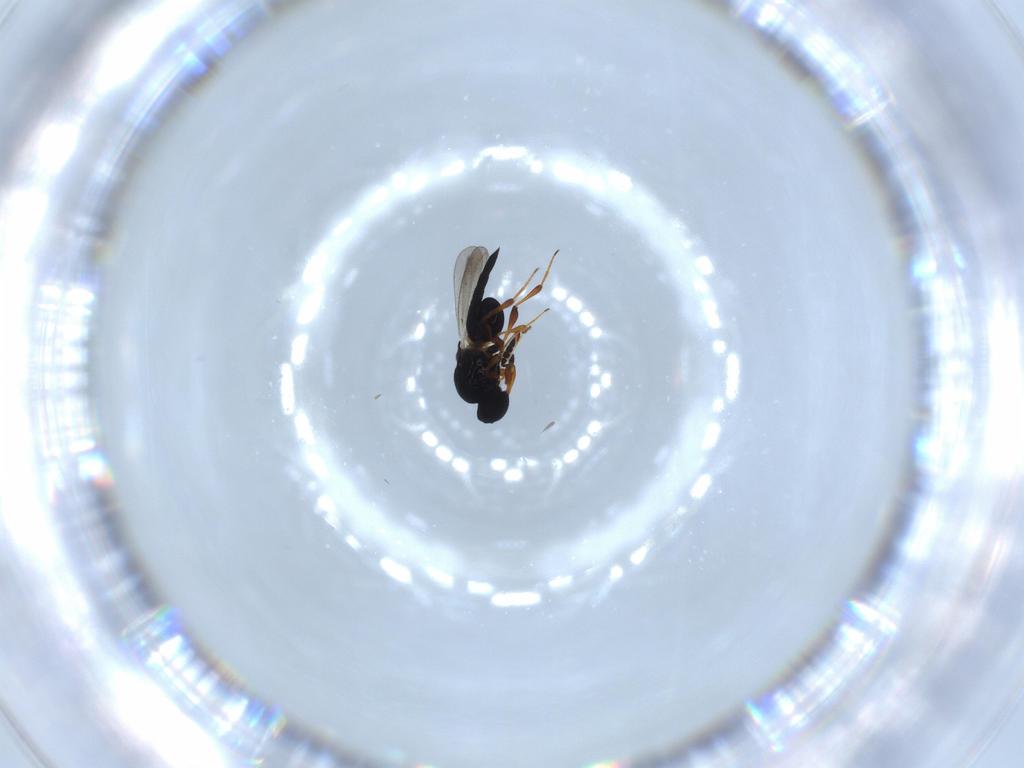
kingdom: Animalia
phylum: Arthropoda
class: Insecta
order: Hymenoptera
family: Platygastridae
